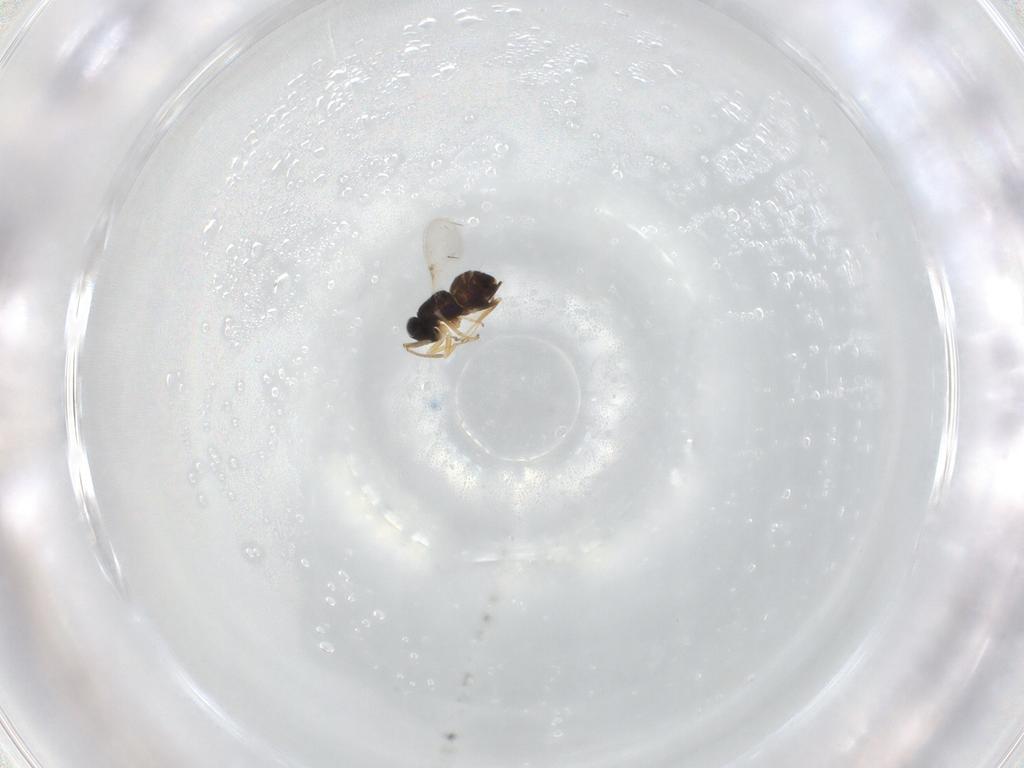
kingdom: Animalia
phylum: Arthropoda
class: Insecta
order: Hymenoptera
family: Encyrtidae
